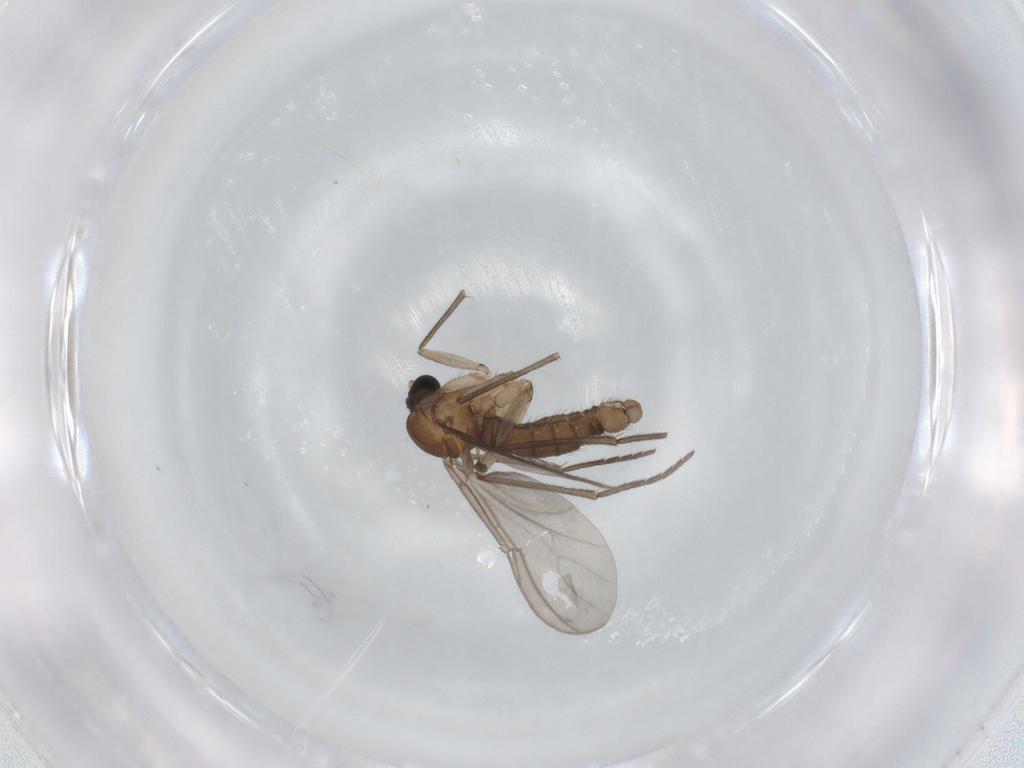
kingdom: Animalia
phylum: Arthropoda
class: Insecta
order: Diptera
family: Sciaridae
